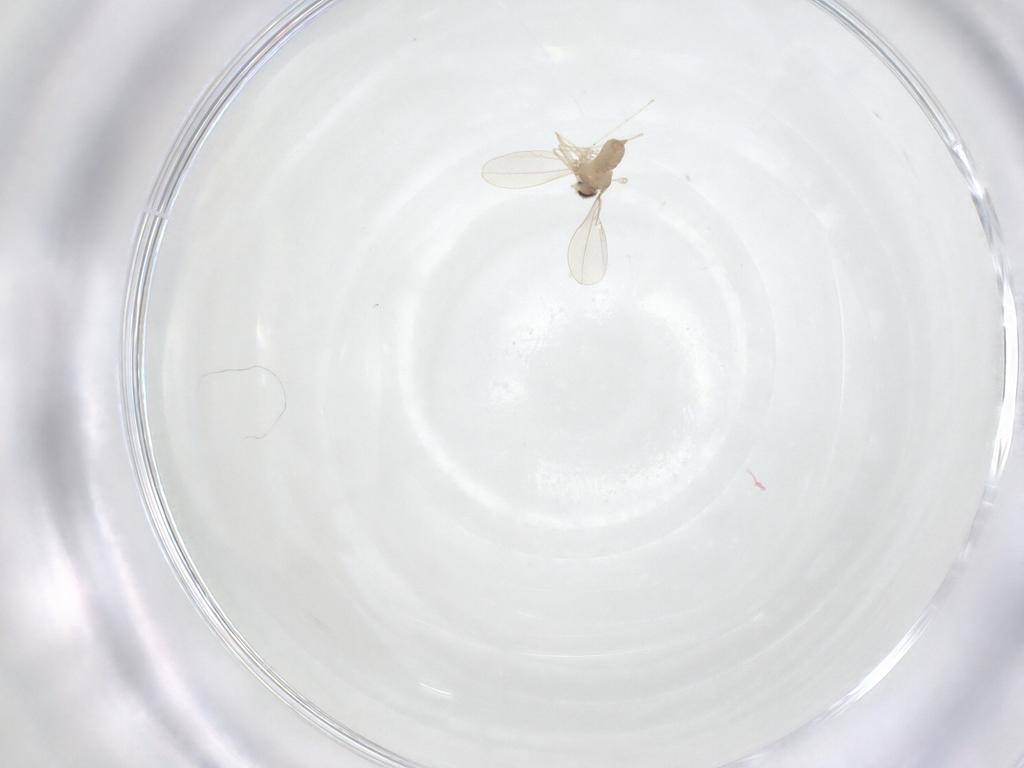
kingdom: Animalia
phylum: Arthropoda
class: Insecta
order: Diptera
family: Cecidomyiidae
